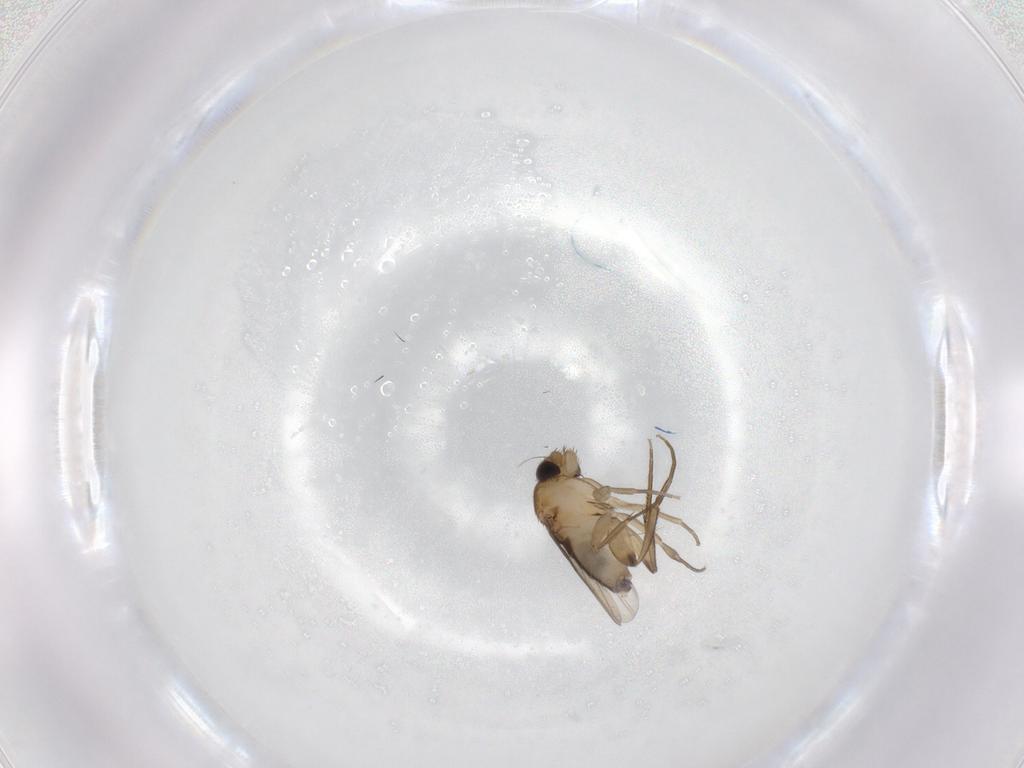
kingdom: Animalia
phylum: Arthropoda
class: Insecta
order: Diptera
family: Phoridae
